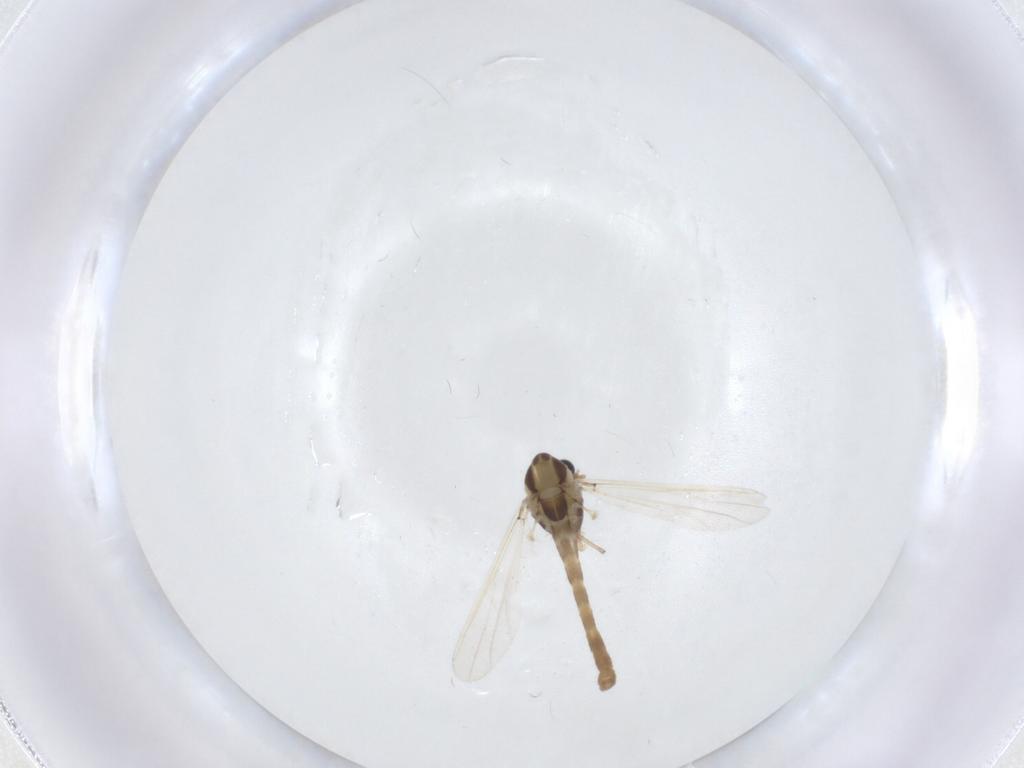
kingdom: Animalia
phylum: Arthropoda
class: Insecta
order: Diptera
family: Chironomidae
